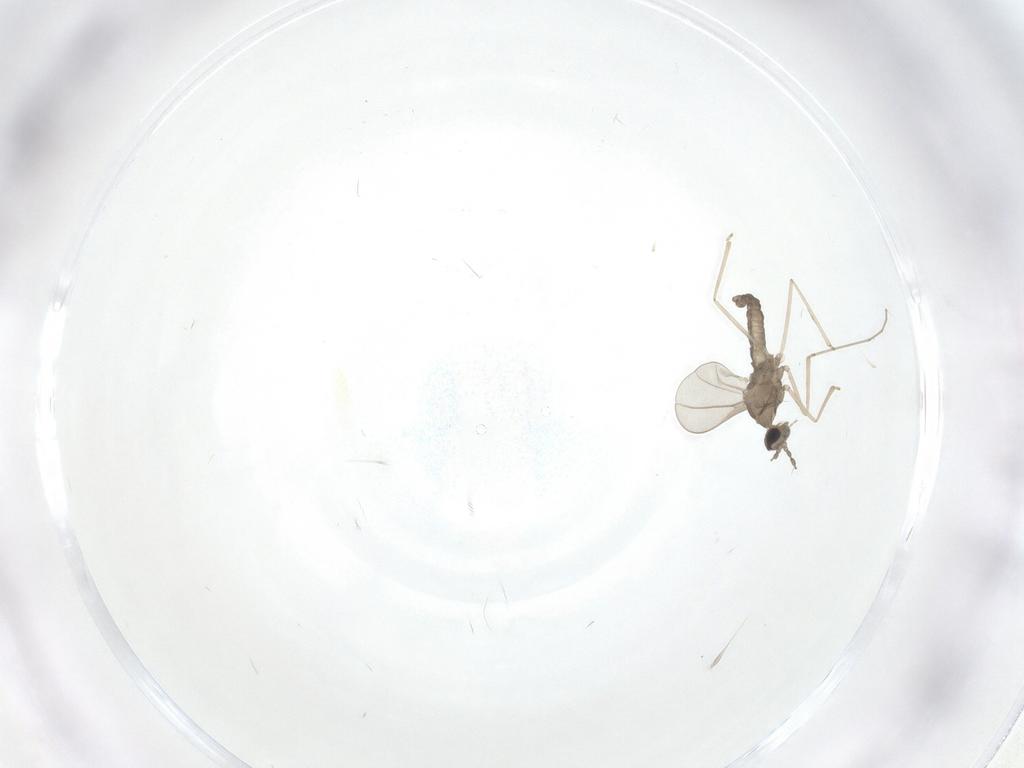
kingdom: Animalia
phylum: Arthropoda
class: Insecta
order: Diptera
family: Cecidomyiidae
